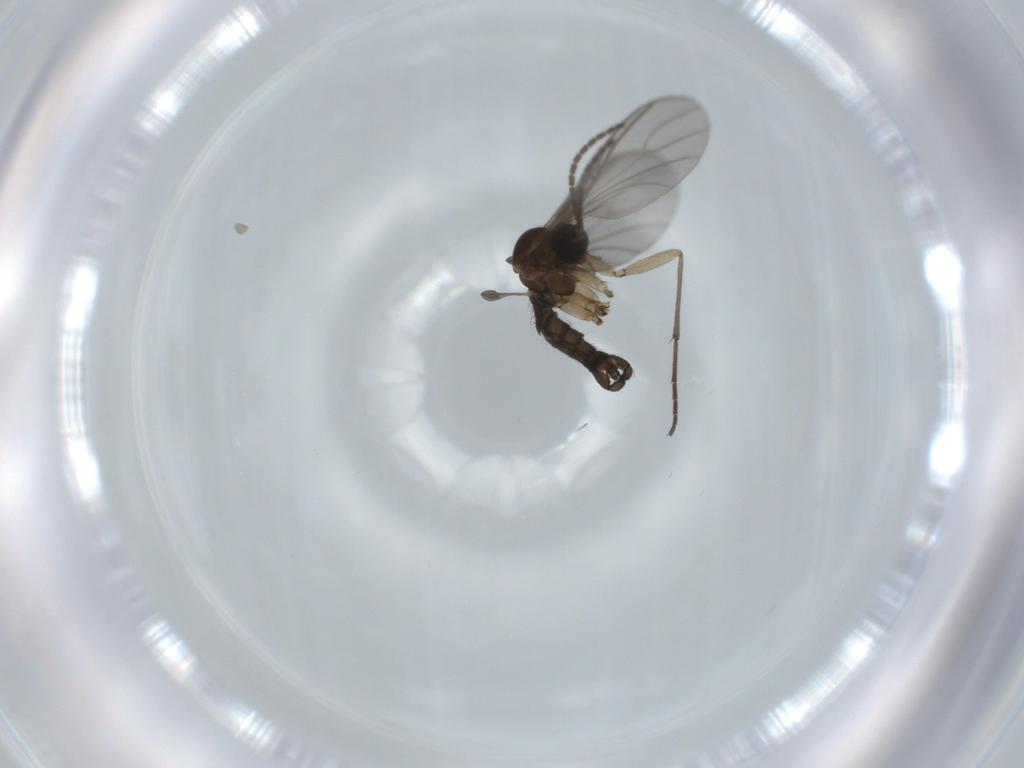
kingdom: Animalia
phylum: Arthropoda
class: Insecta
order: Diptera
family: Sciaridae
